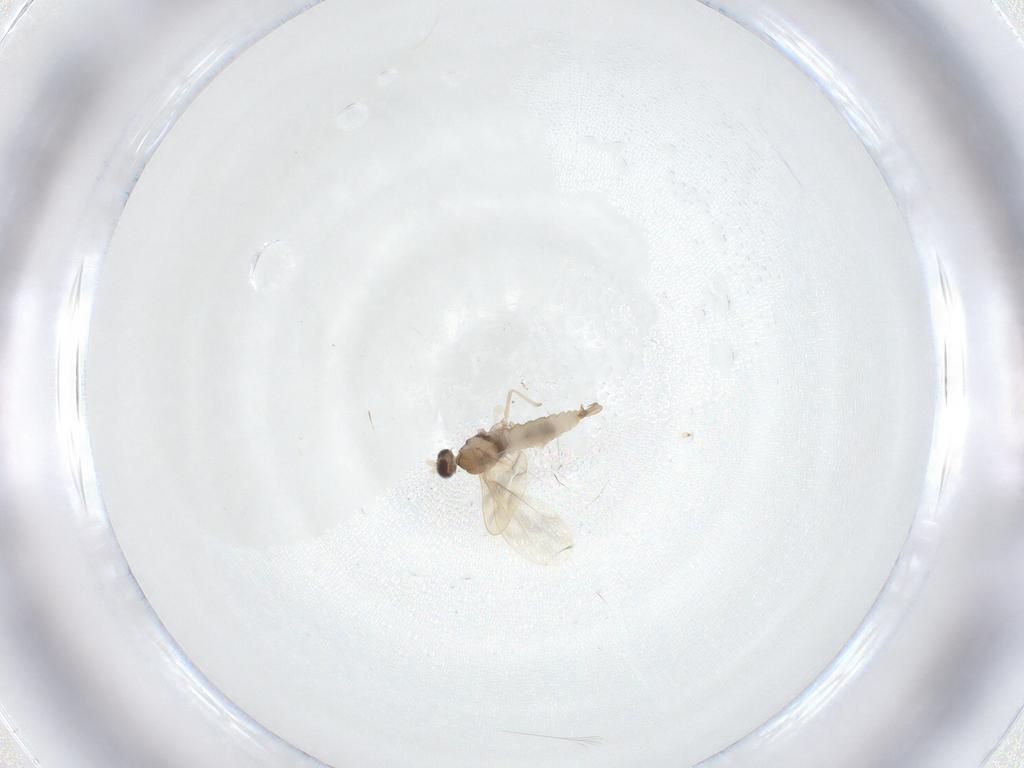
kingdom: Animalia
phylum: Arthropoda
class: Insecta
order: Diptera
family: Cecidomyiidae
